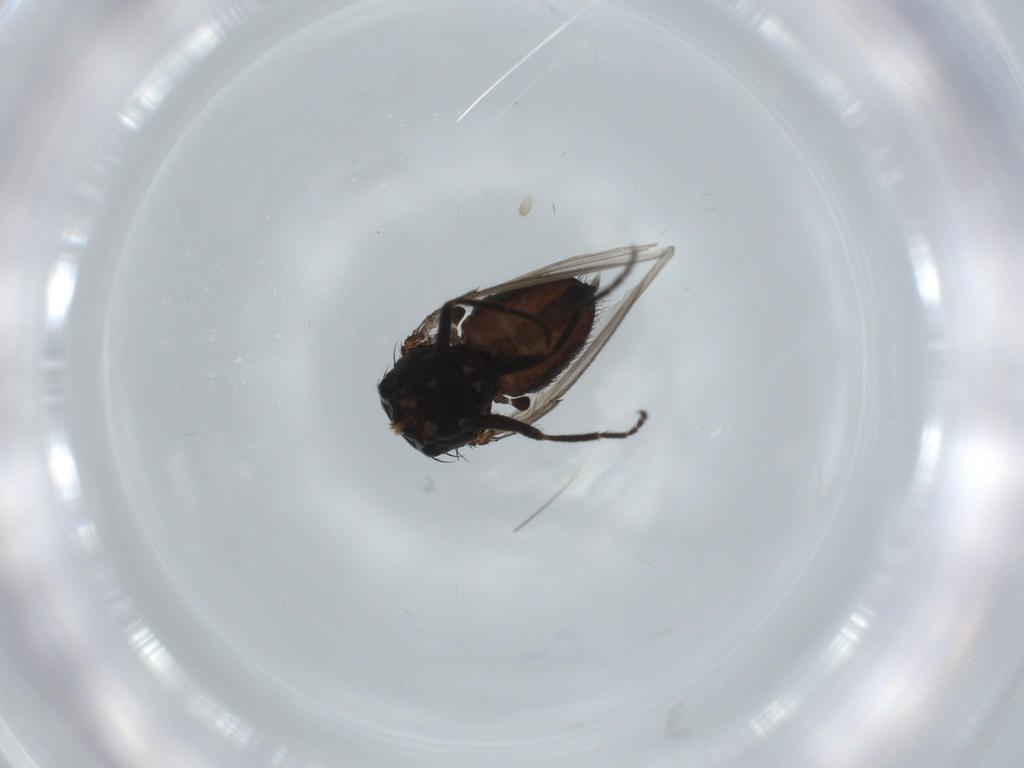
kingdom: Animalia
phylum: Arthropoda
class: Insecta
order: Diptera
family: Milichiidae
